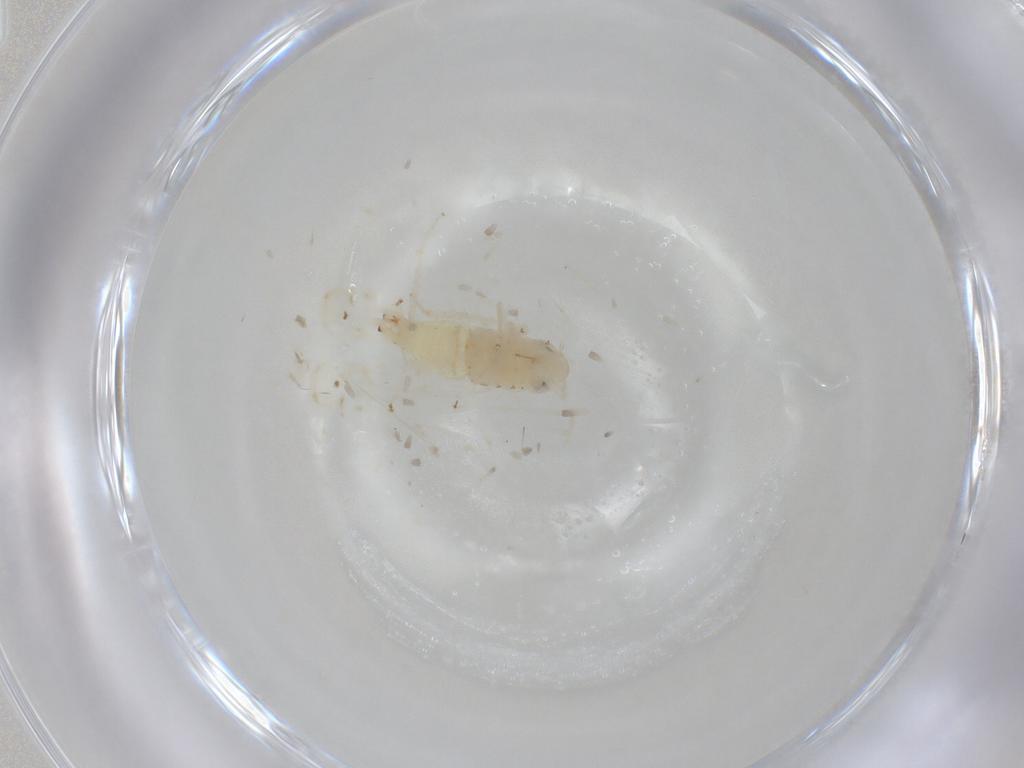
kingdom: Animalia
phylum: Arthropoda
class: Insecta
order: Hemiptera
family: Cicadellidae
